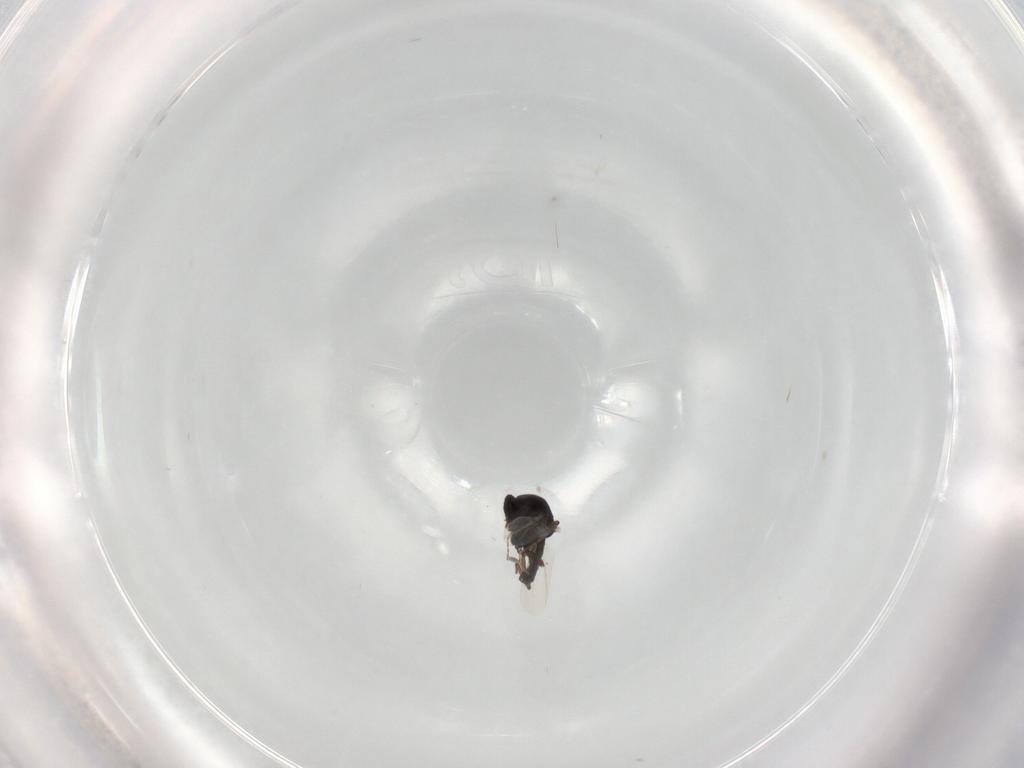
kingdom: Animalia
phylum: Arthropoda
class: Insecta
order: Diptera
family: Ceratopogonidae
